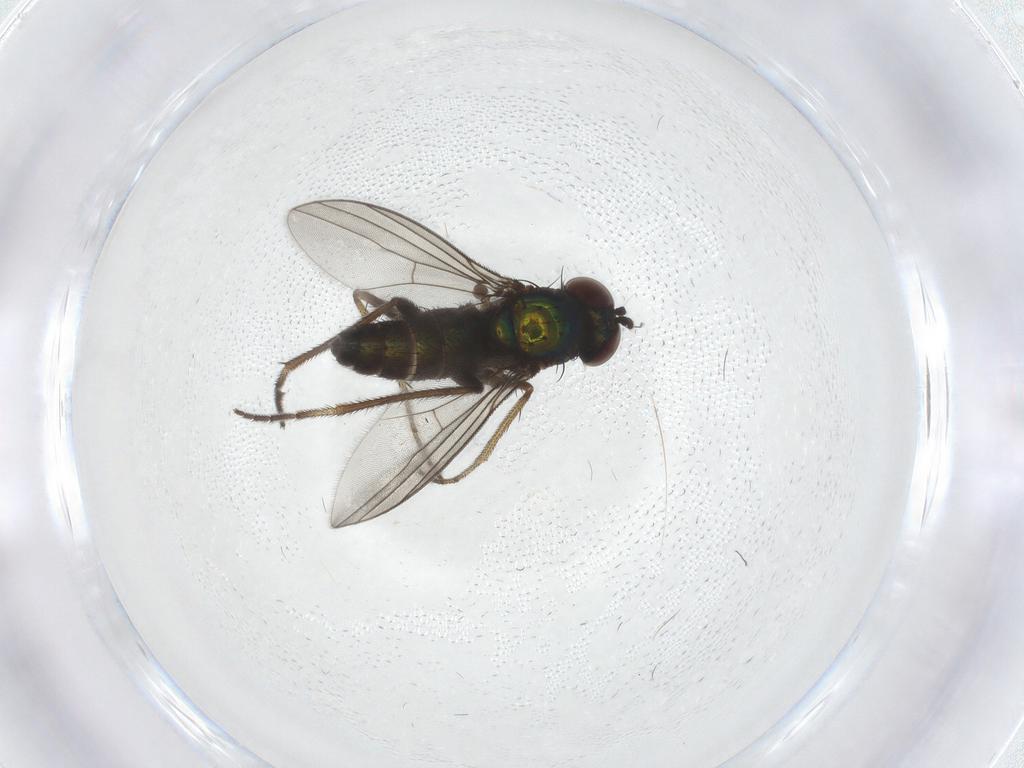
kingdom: Animalia
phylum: Arthropoda
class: Insecta
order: Diptera
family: Dolichopodidae
